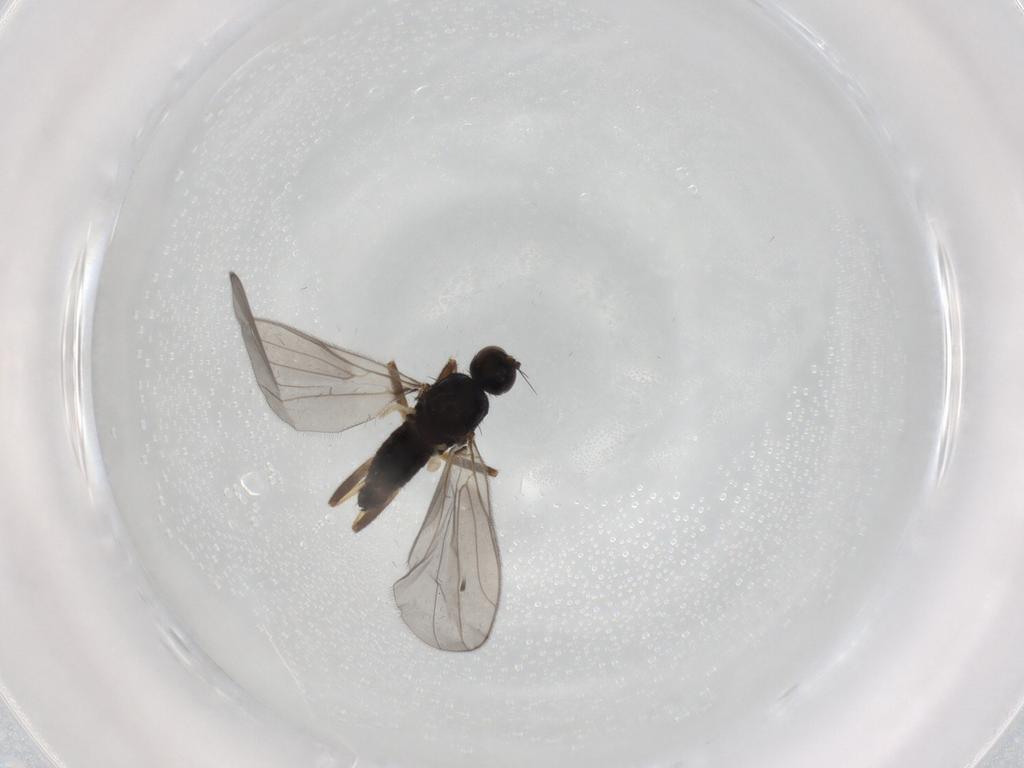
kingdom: Animalia
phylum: Arthropoda
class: Insecta
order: Diptera
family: Hybotidae
